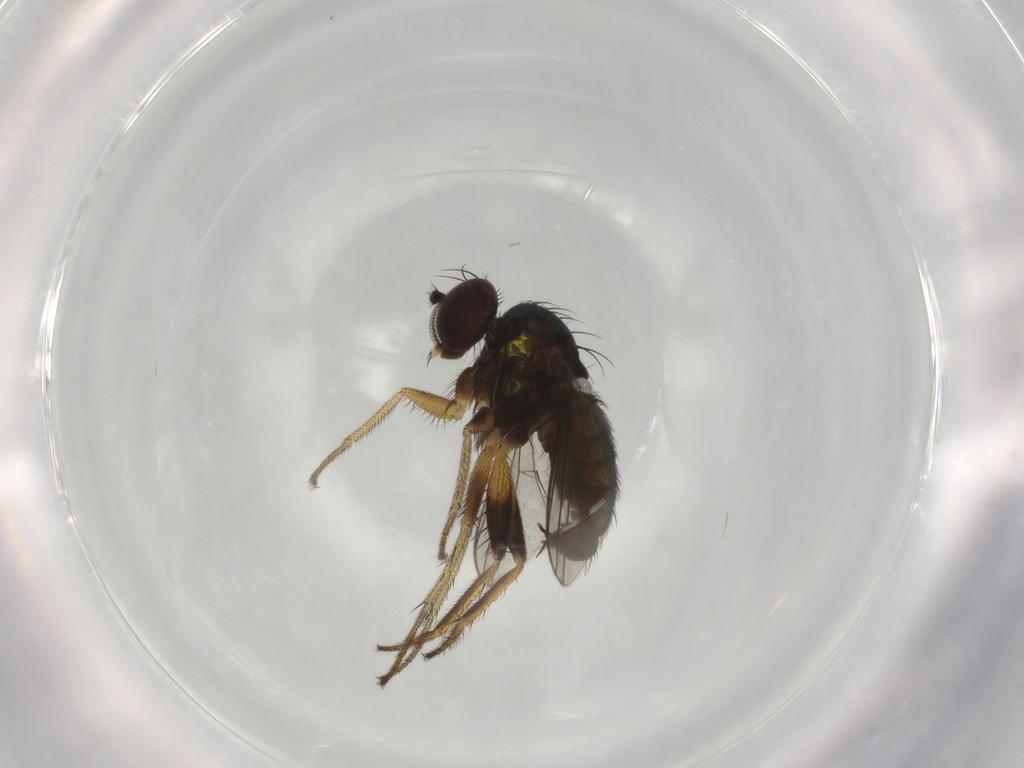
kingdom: Animalia
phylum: Arthropoda
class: Insecta
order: Diptera
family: Dolichopodidae
